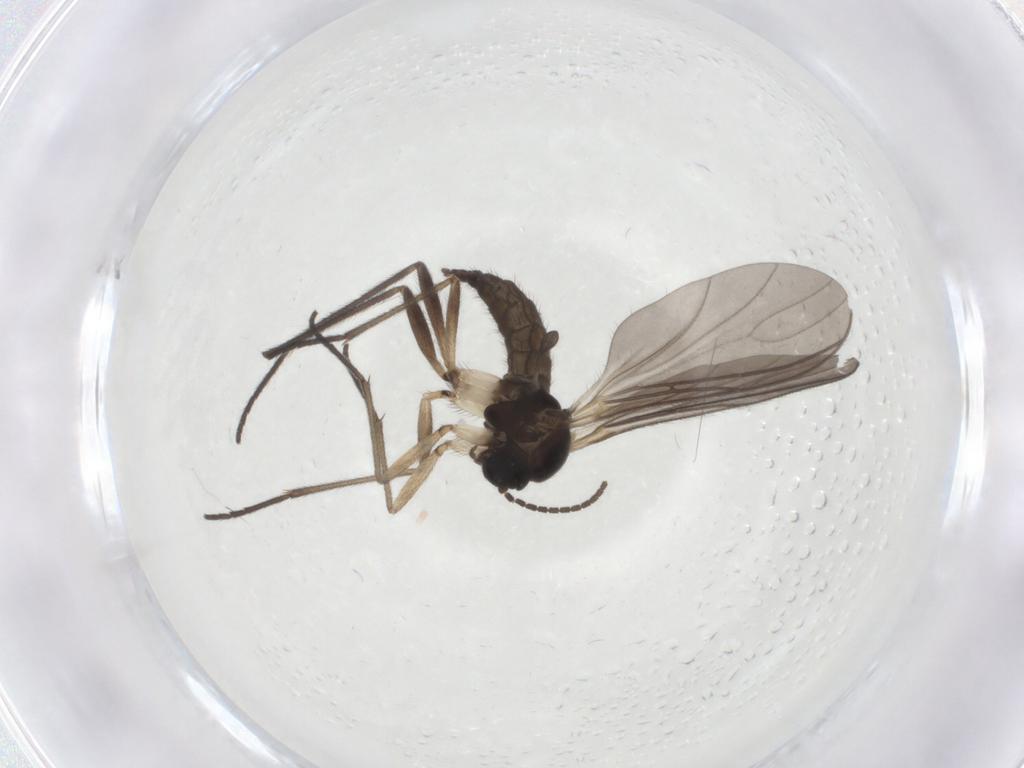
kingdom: Animalia
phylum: Arthropoda
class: Insecta
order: Diptera
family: Sciaridae
